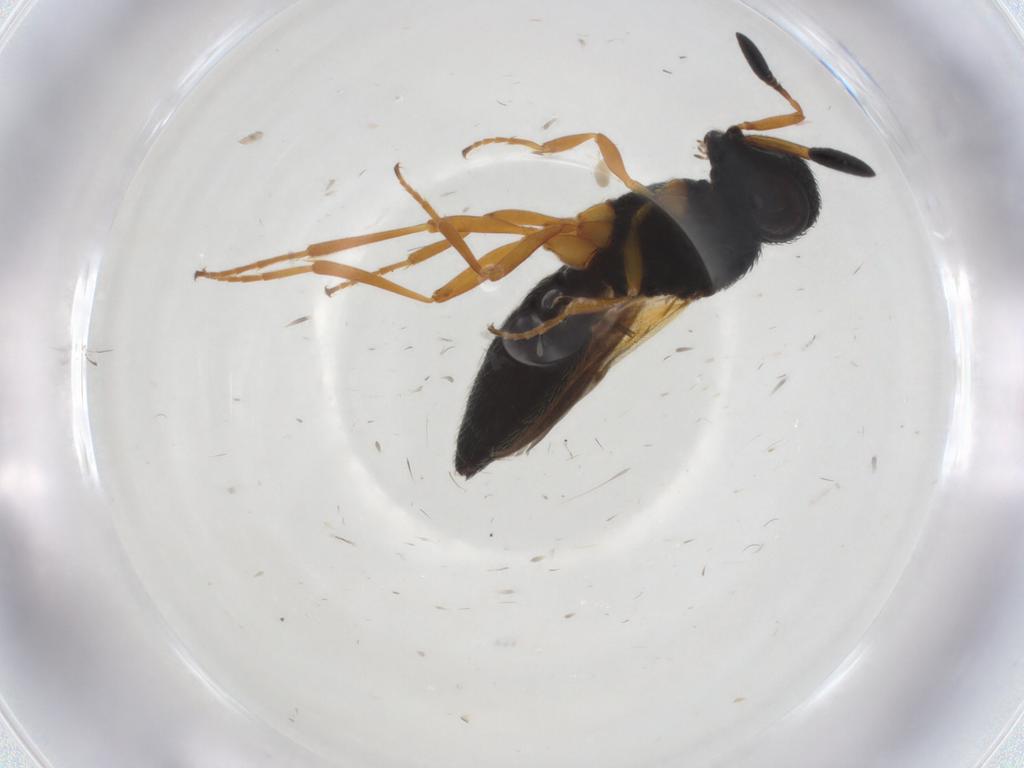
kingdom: Animalia
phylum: Arthropoda
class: Insecta
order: Hymenoptera
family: Scelionidae
